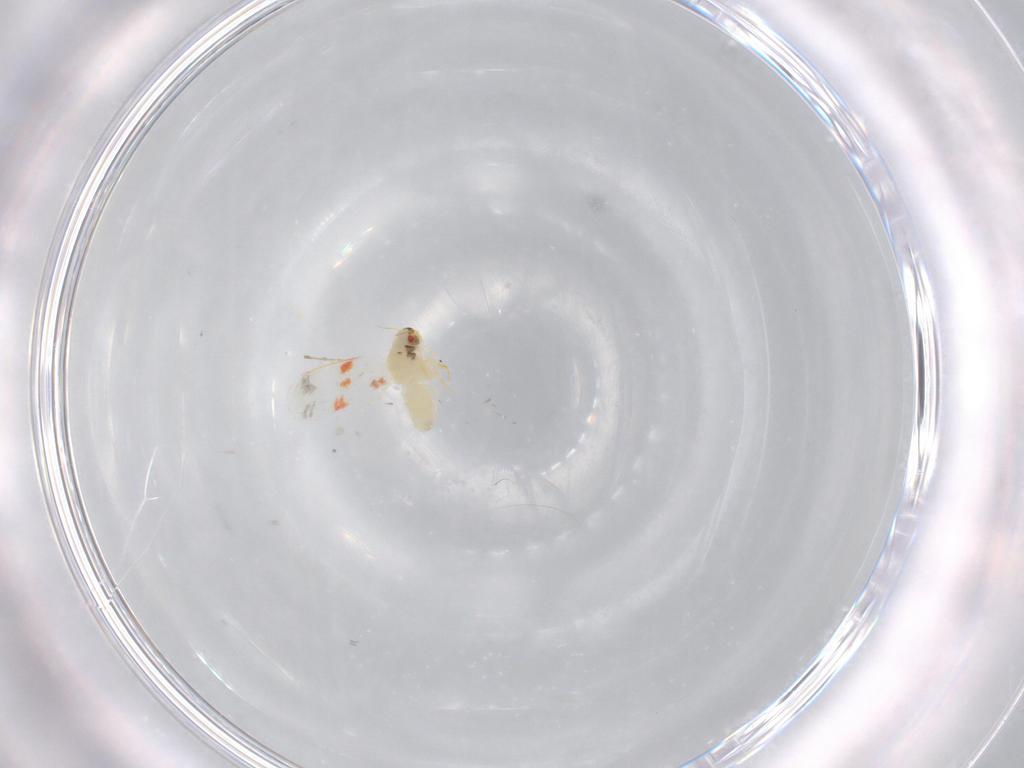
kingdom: Animalia
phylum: Arthropoda
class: Insecta
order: Hemiptera
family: Aleyrodidae
